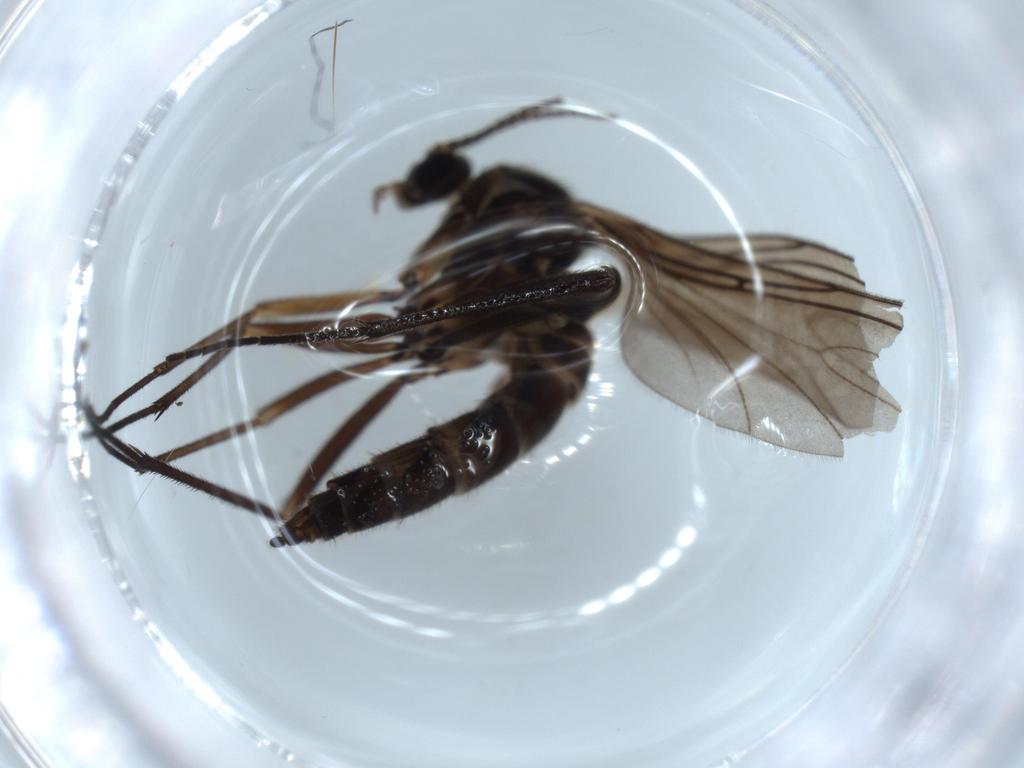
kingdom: Animalia
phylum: Arthropoda
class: Insecta
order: Diptera
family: Sciaridae
